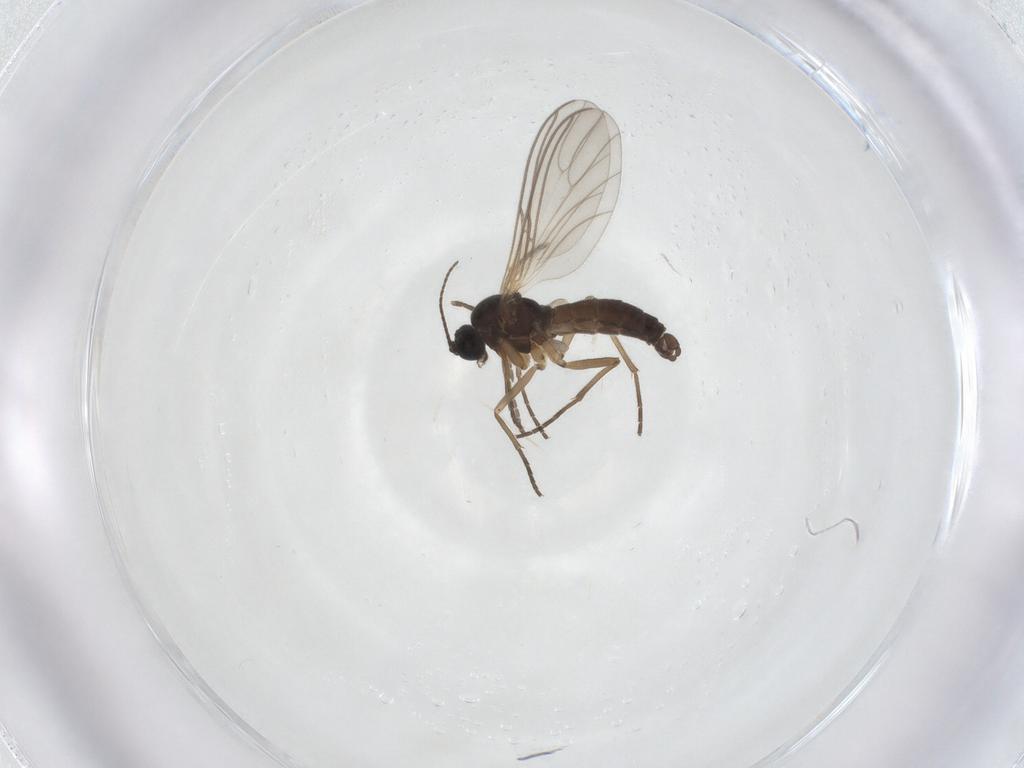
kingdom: Animalia
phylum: Arthropoda
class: Insecta
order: Diptera
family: Sciaridae
